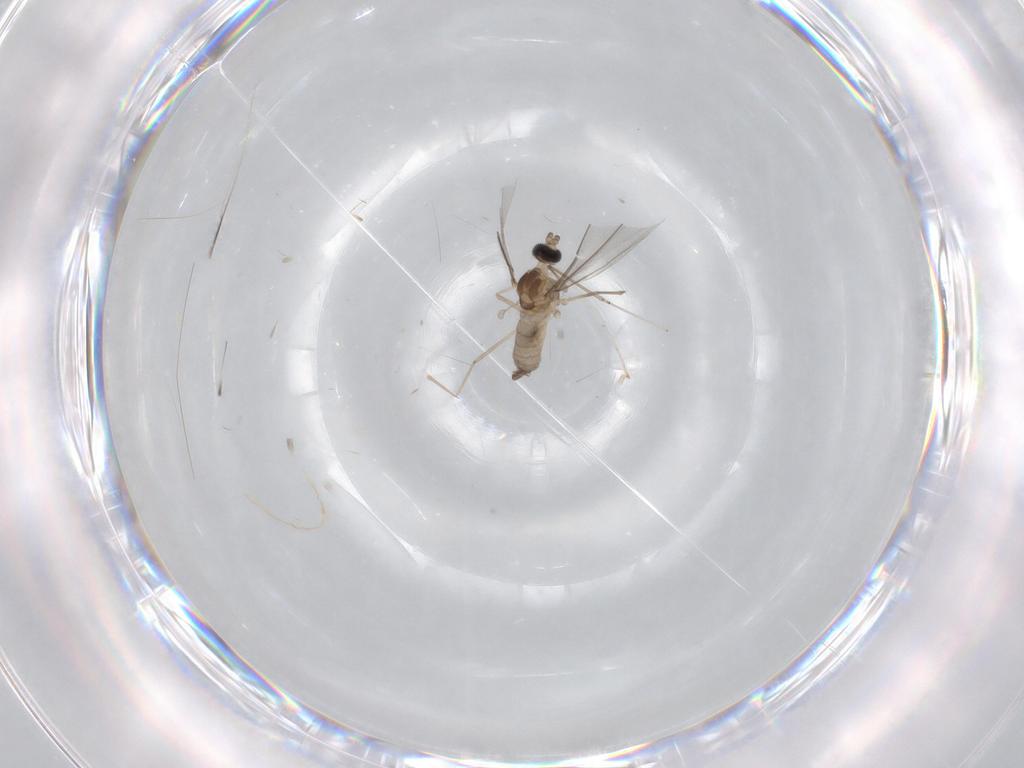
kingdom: Animalia
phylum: Arthropoda
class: Insecta
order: Diptera
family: Cecidomyiidae
